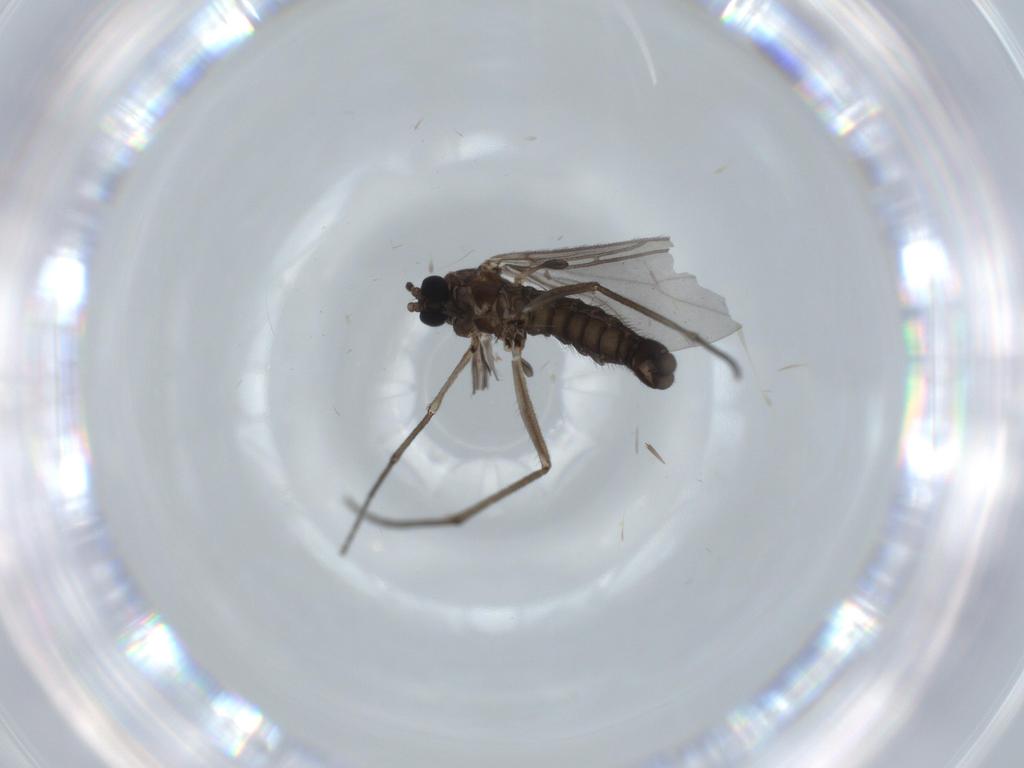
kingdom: Animalia
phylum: Arthropoda
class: Insecta
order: Diptera
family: Sciaridae
